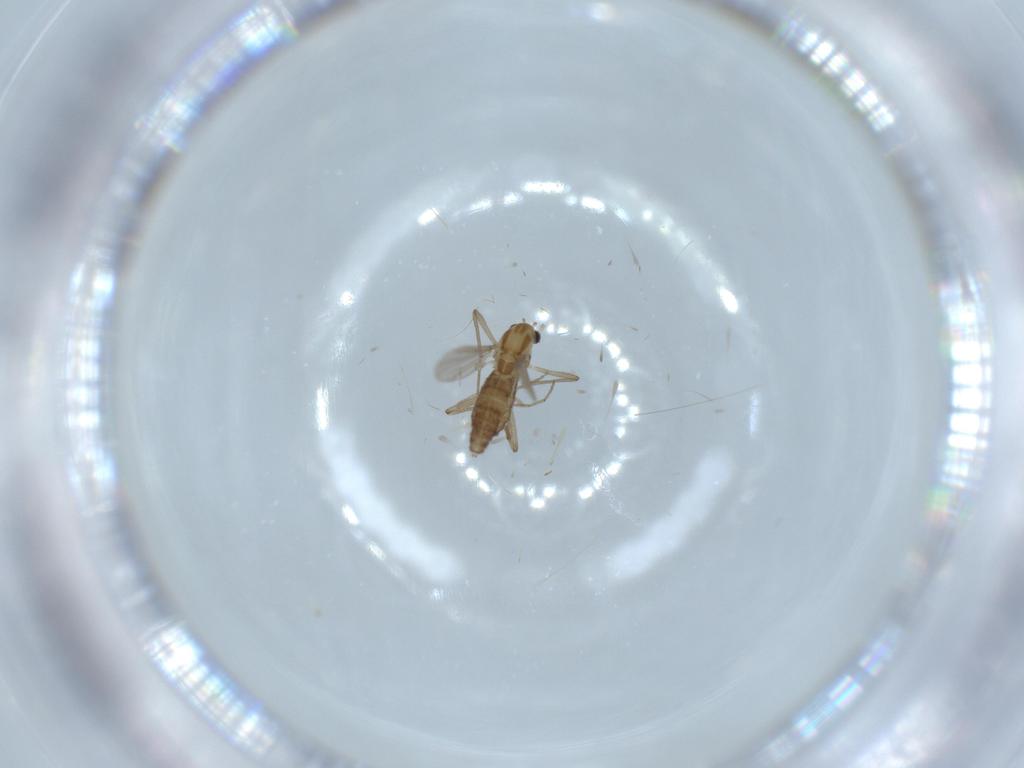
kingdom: Animalia
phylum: Arthropoda
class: Insecta
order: Diptera
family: Chironomidae
